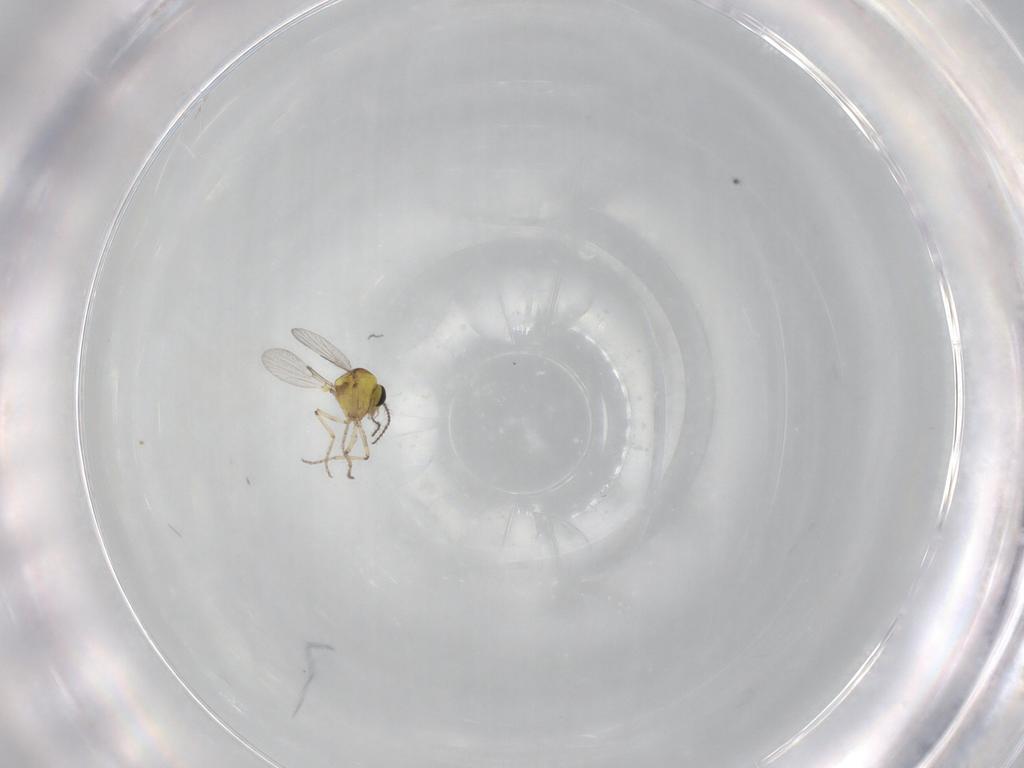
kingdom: Animalia
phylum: Arthropoda
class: Insecta
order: Diptera
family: Ceratopogonidae
